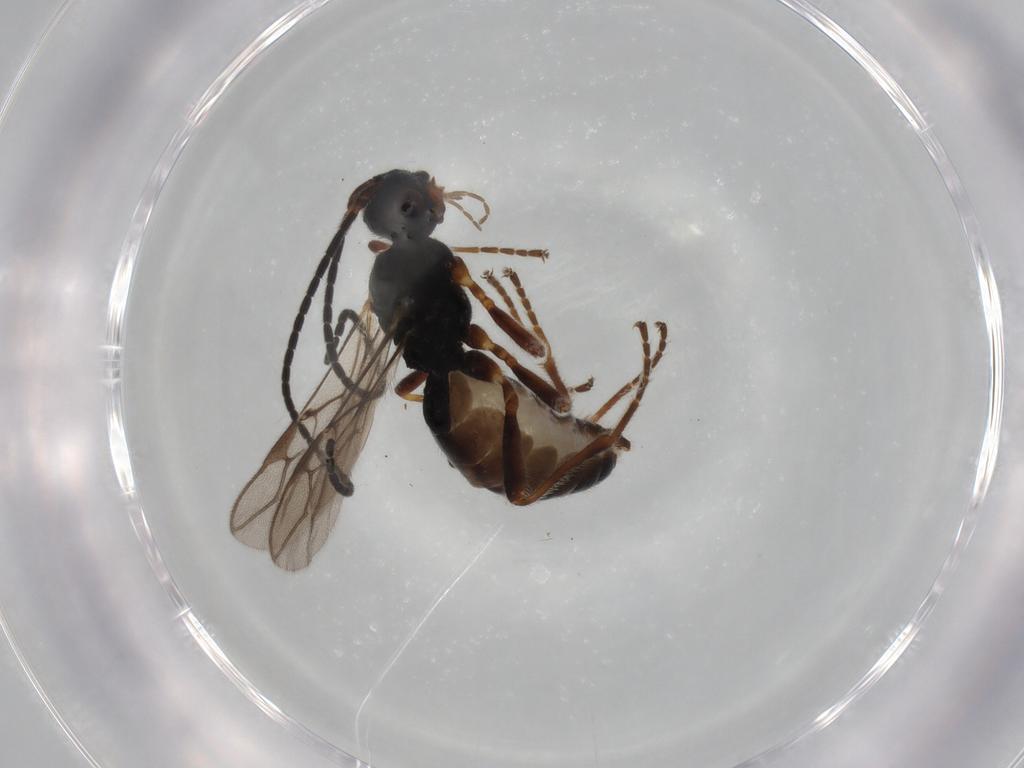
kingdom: Animalia
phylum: Arthropoda
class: Insecta
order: Hymenoptera
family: Braconidae
